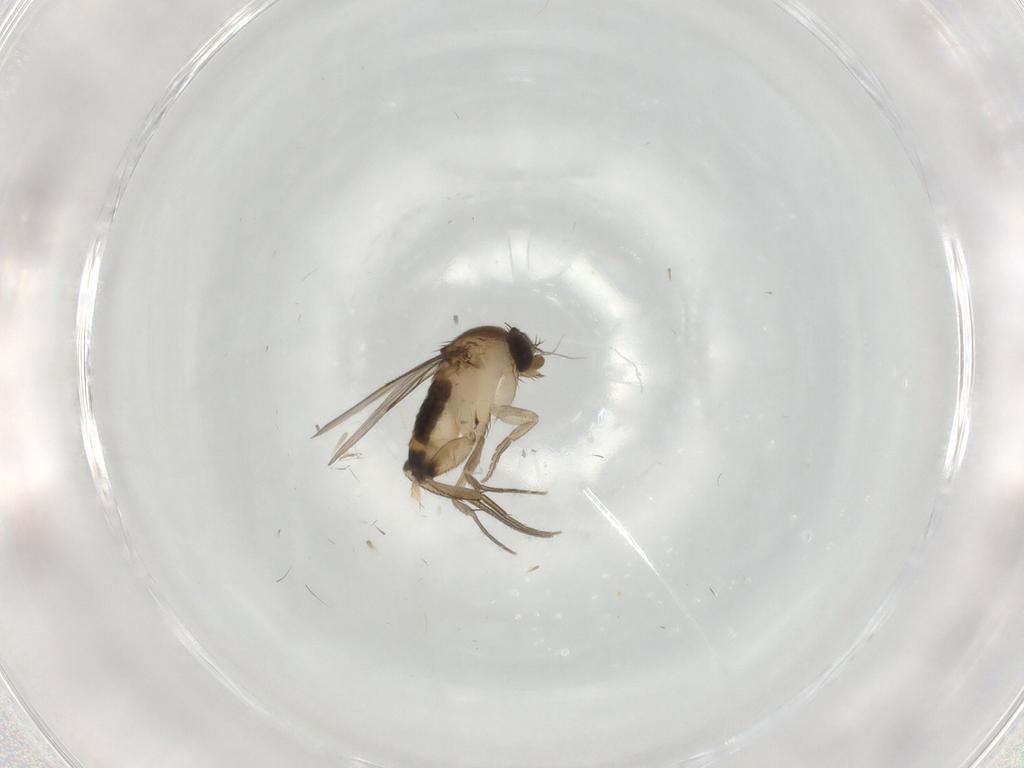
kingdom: Animalia
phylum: Arthropoda
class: Insecta
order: Diptera
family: Phoridae
